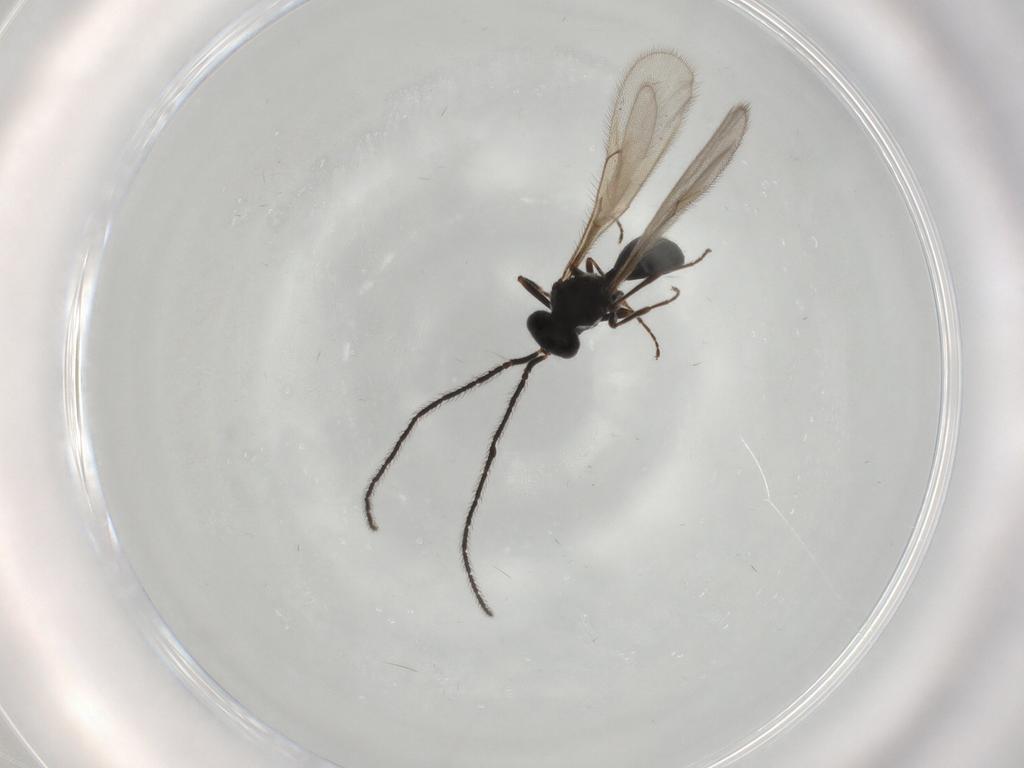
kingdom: Animalia
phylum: Arthropoda
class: Insecta
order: Hymenoptera
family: Scelionidae
